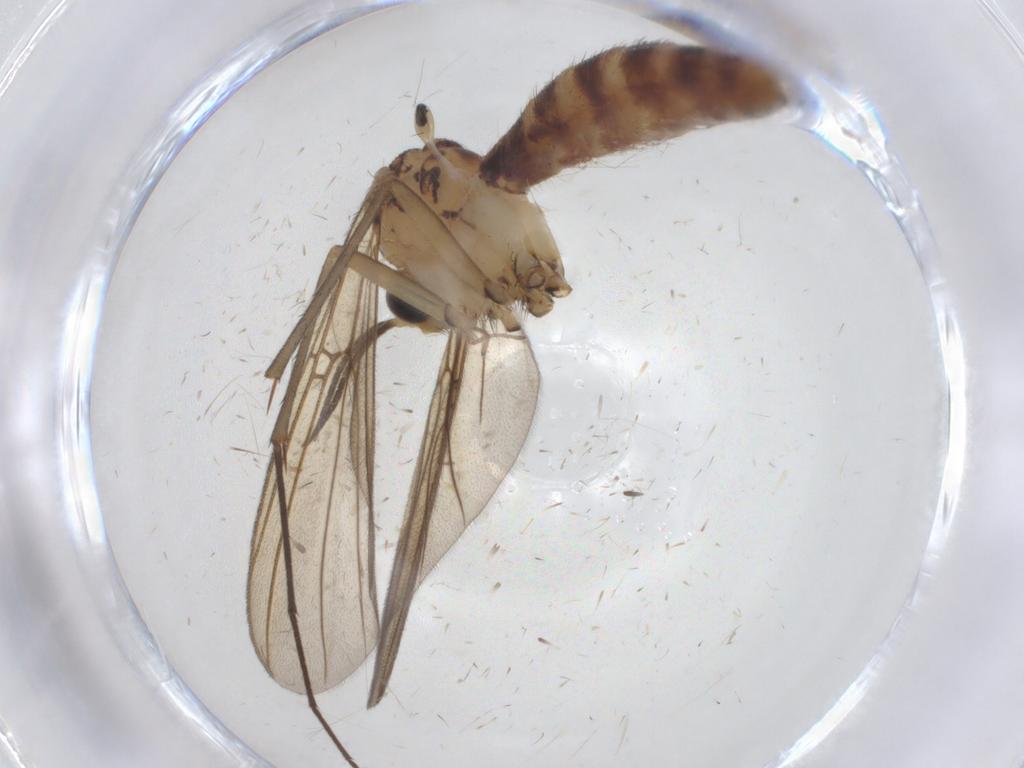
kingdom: Animalia
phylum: Arthropoda
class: Insecta
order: Diptera
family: Mycetophilidae
